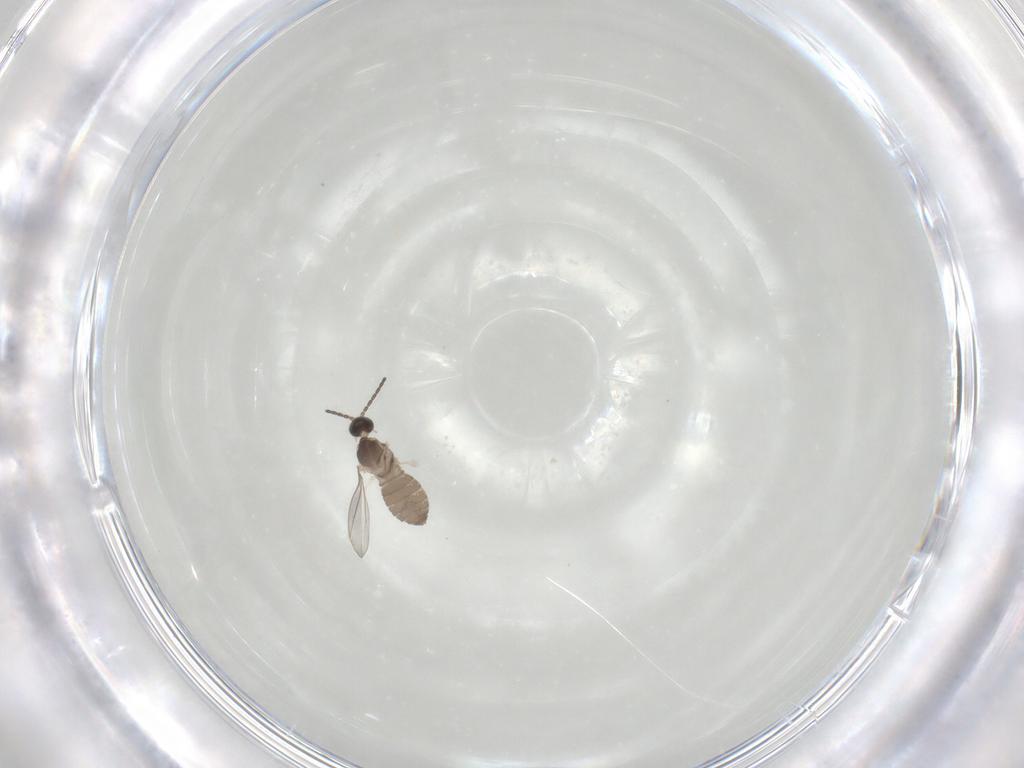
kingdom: Animalia
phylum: Arthropoda
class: Insecta
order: Diptera
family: Cecidomyiidae
